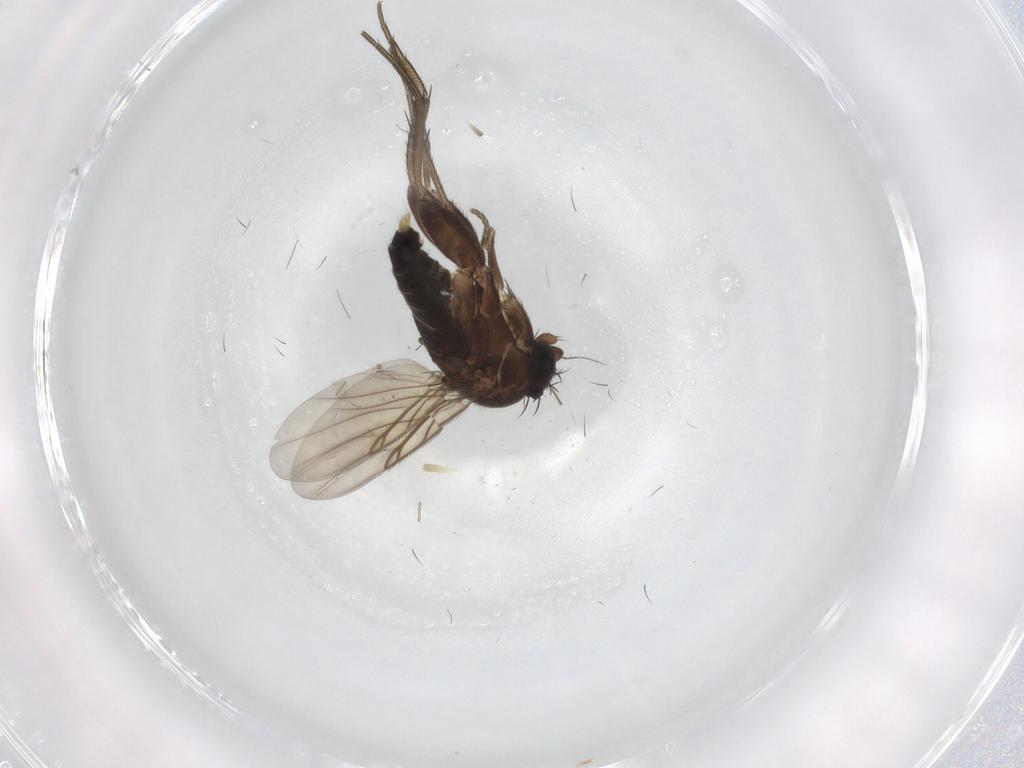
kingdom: Animalia
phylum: Arthropoda
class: Insecta
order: Diptera
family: Phoridae
